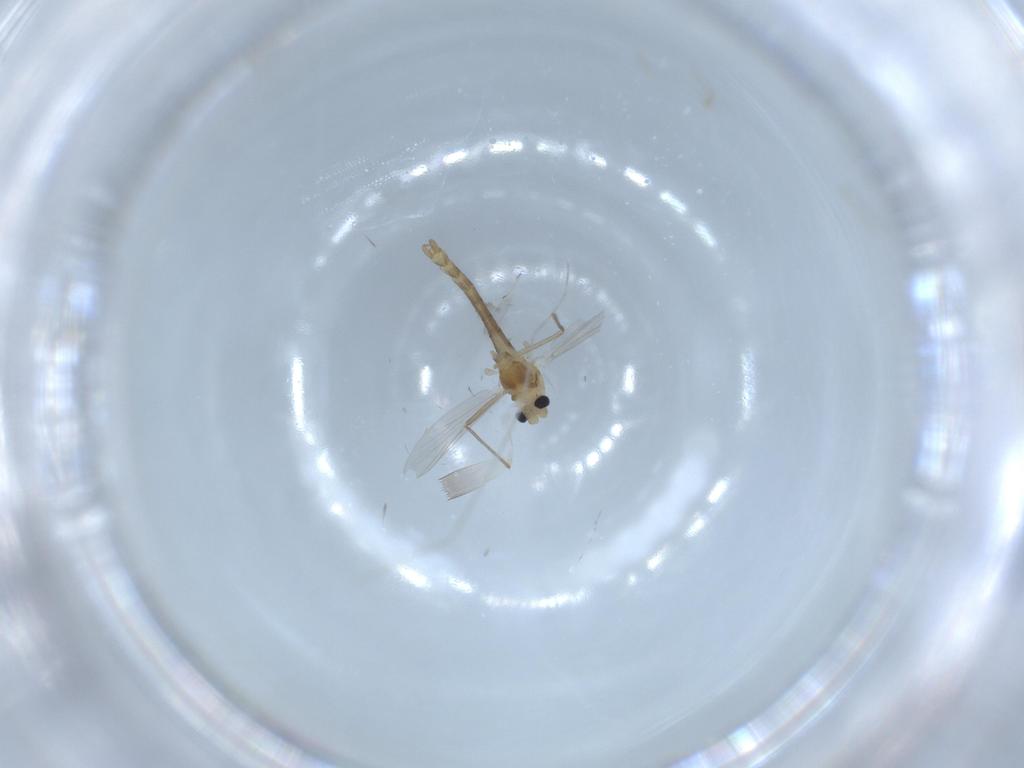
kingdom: Animalia
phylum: Arthropoda
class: Insecta
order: Diptera
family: Chironomidae
